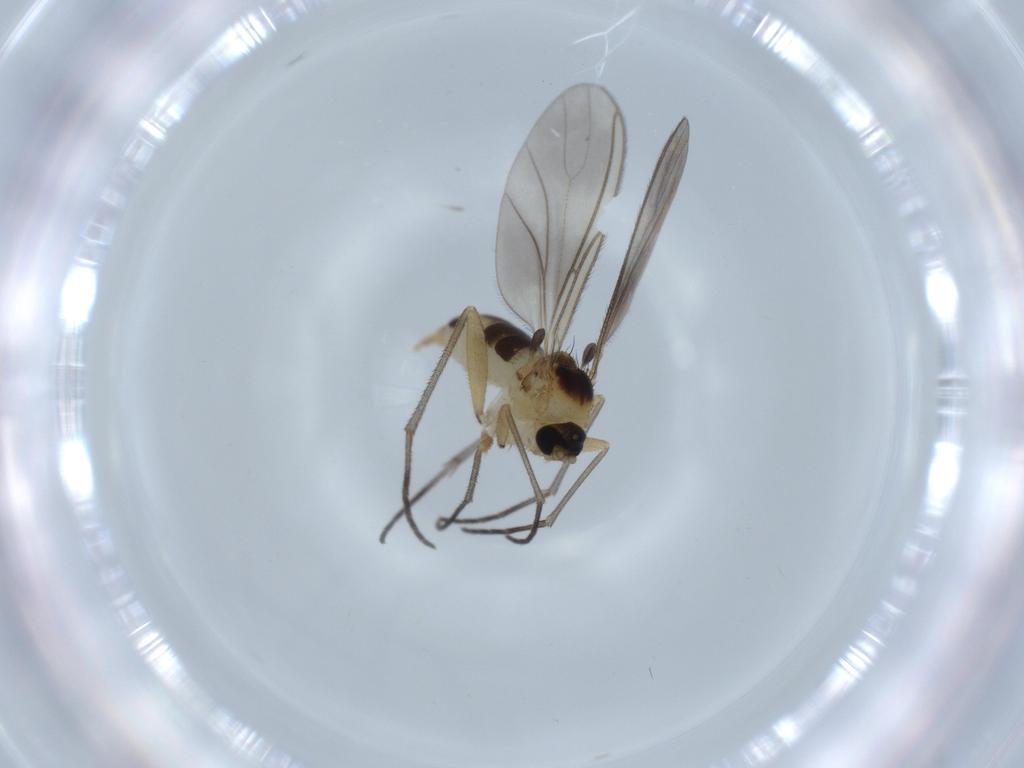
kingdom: Animalia
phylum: Arthropoda
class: Insecta
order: Diptera
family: Sciaridae
